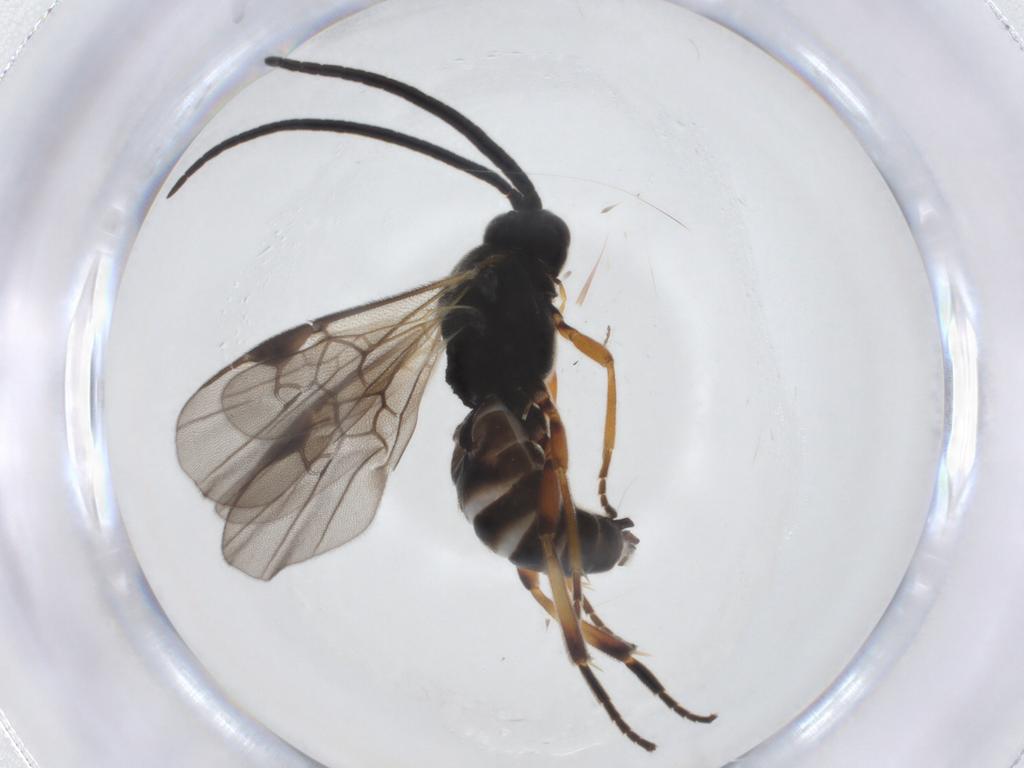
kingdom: Animalia
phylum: Arthropoda
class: Insecta
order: Hymenoptera
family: Braconidae
